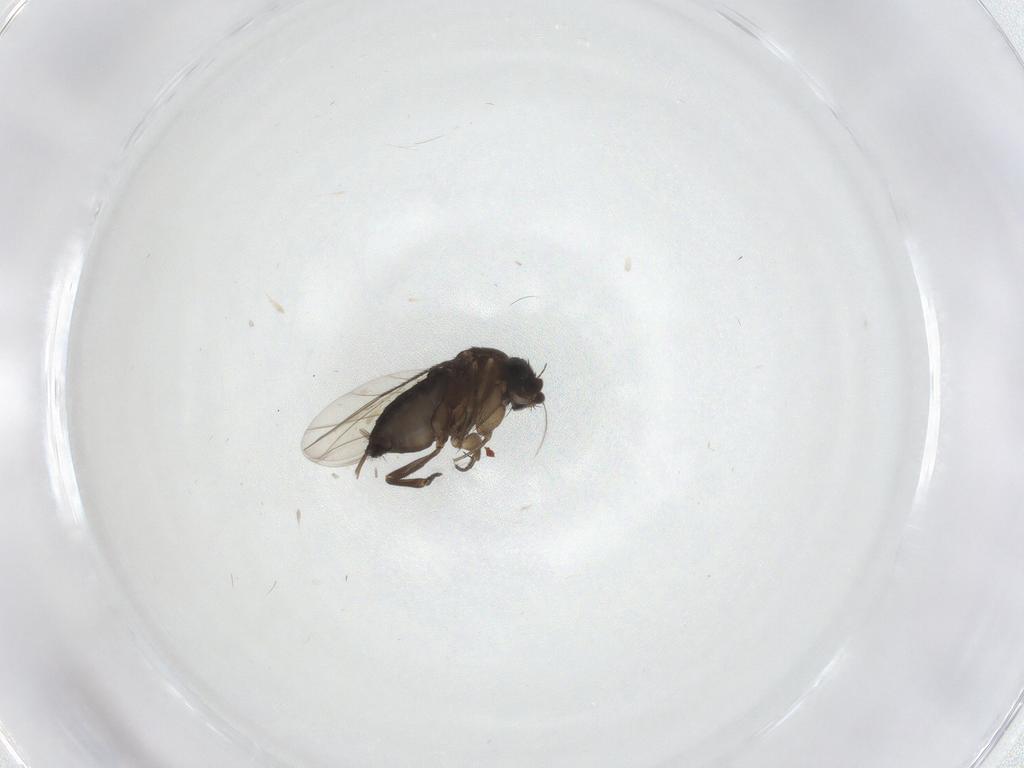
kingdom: Animalia
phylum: Arthropoda
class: Insecta
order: Diptera
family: Phoridae
